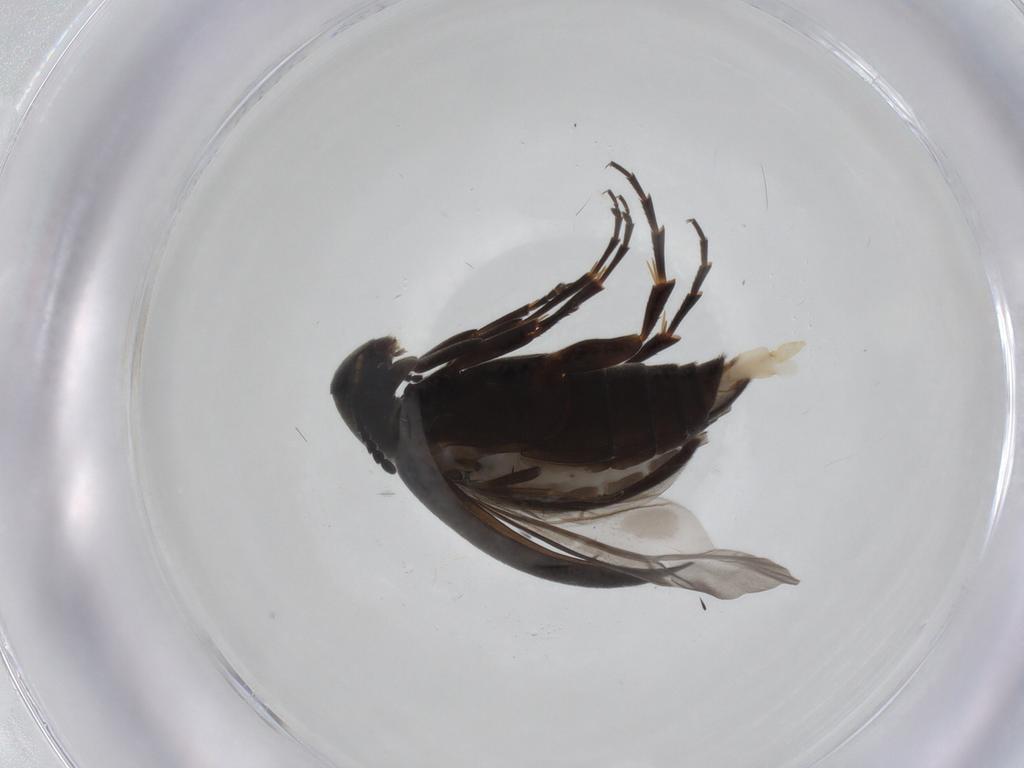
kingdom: Animalia
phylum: Arthropoda
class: Insecta
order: Coleoptera
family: Scraptiidae
